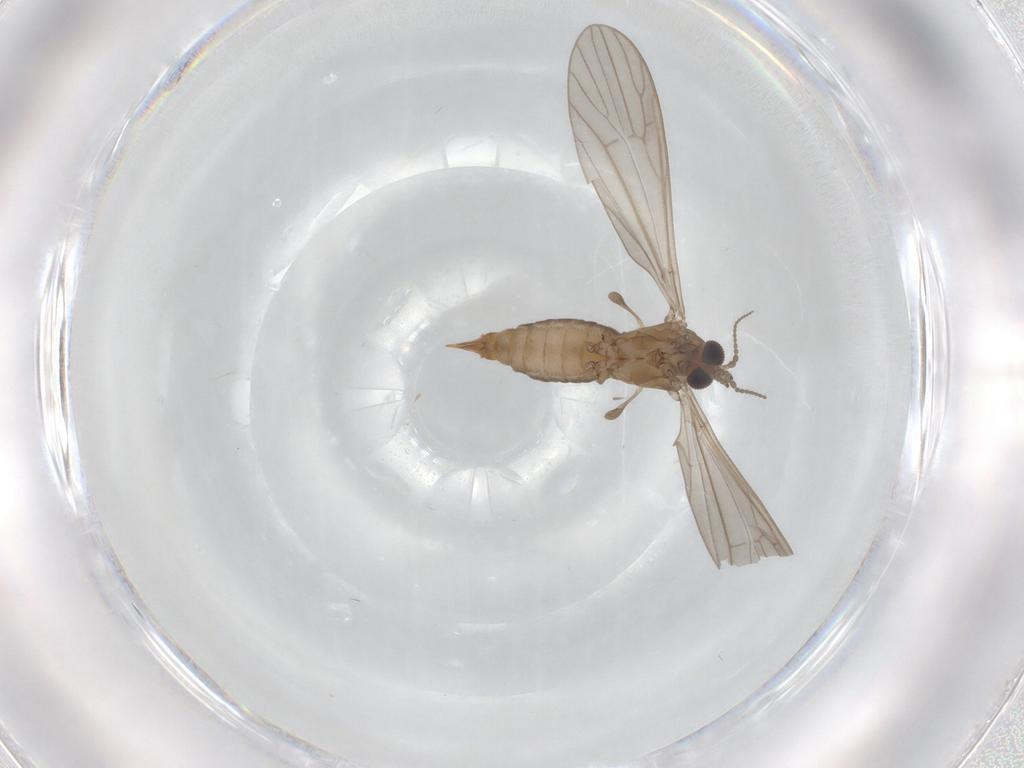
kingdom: Animalia
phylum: Arthropoda
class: Insecta
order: Diptera
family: Limoniidae
